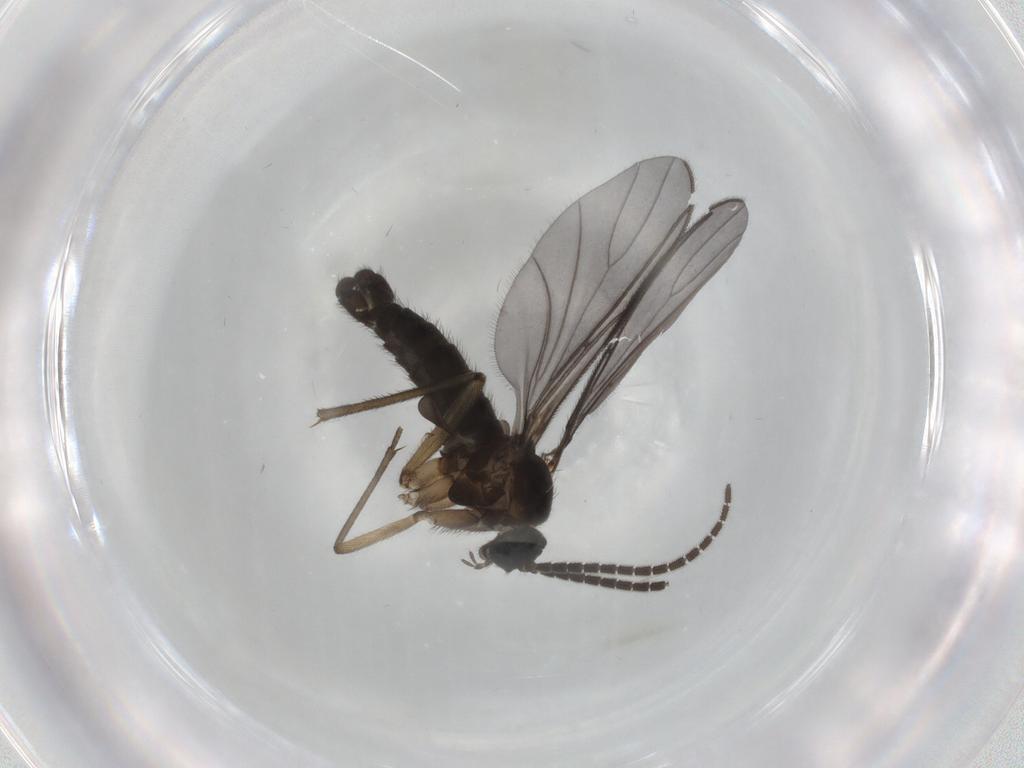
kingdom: Animalia
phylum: Arthropoda
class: Insecta
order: Diptera
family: Sciaridae
